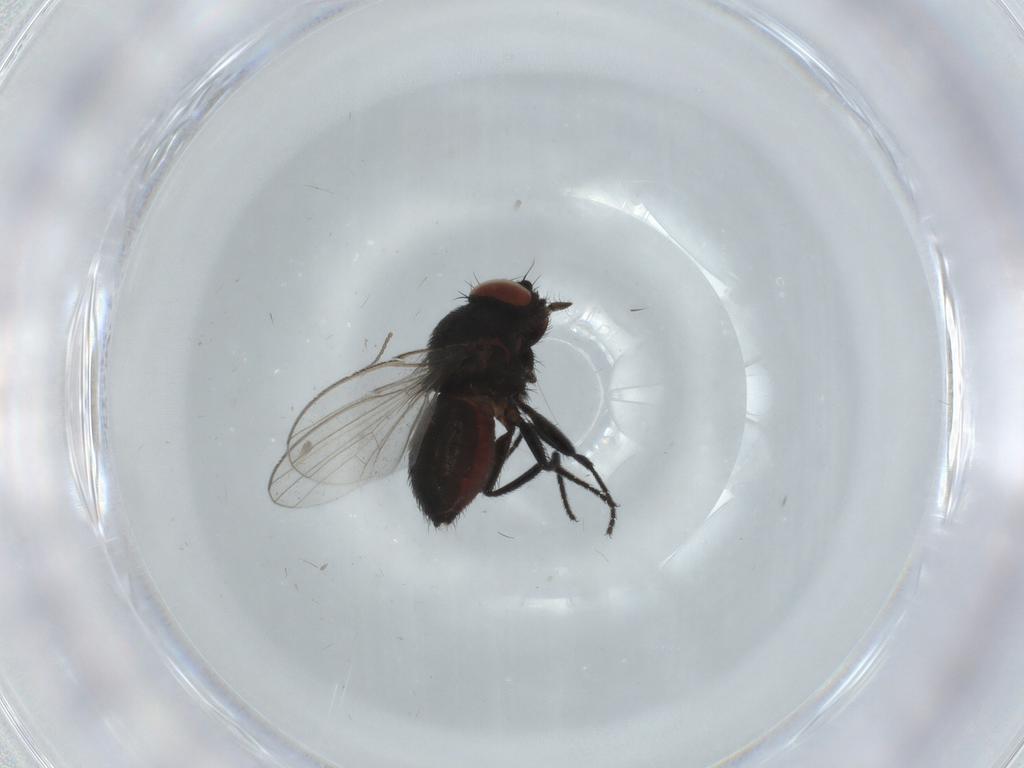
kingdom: Animalia
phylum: Arthropoda
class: Insecta
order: Diptera
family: Milichiidae
